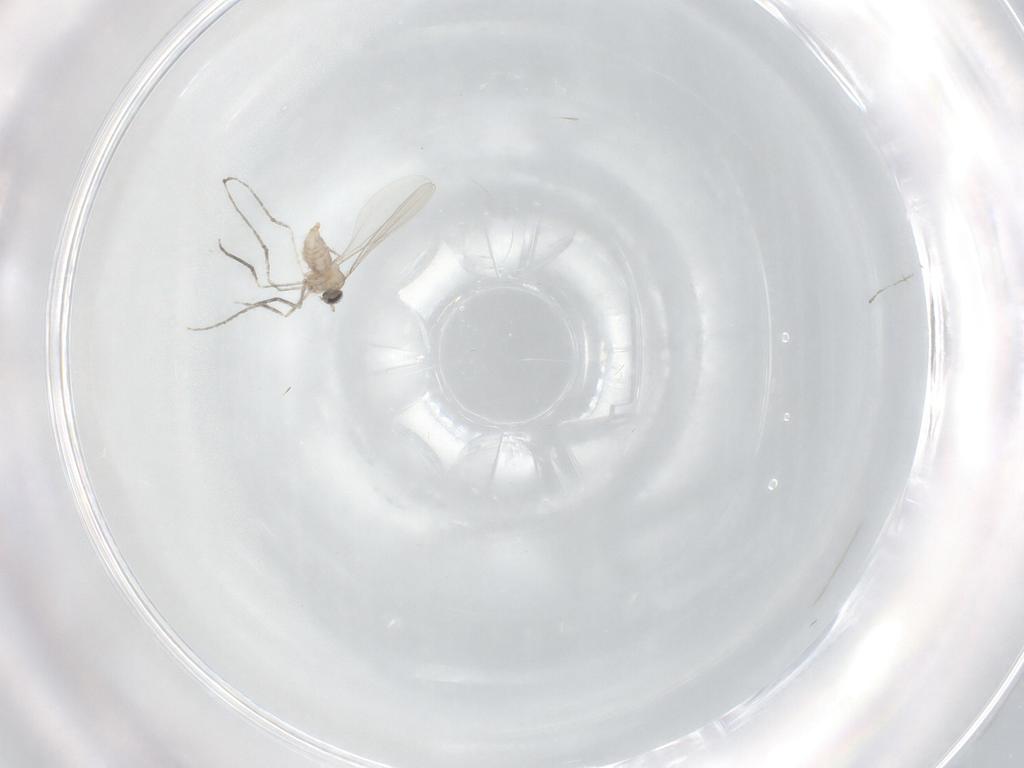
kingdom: Animalia
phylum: Arthropoda
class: Insecta
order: Diptera
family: Cecidomyiidae
